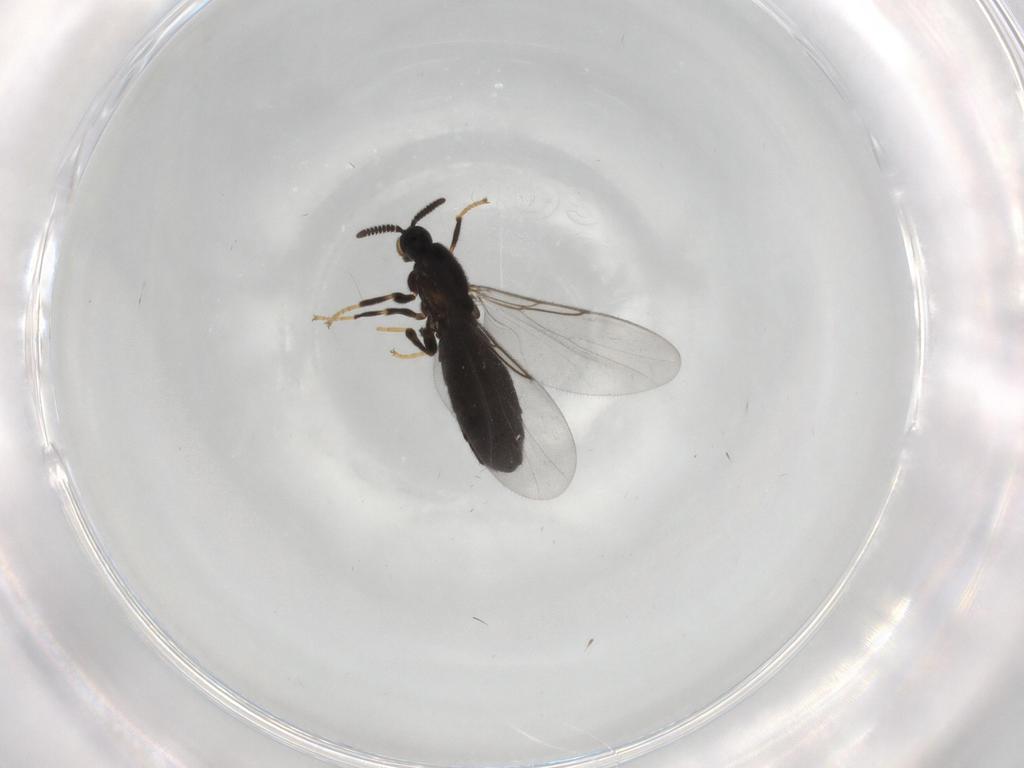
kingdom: Animalia
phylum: Arthropoda
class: Insecta
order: Diptera
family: Scatopsidae
